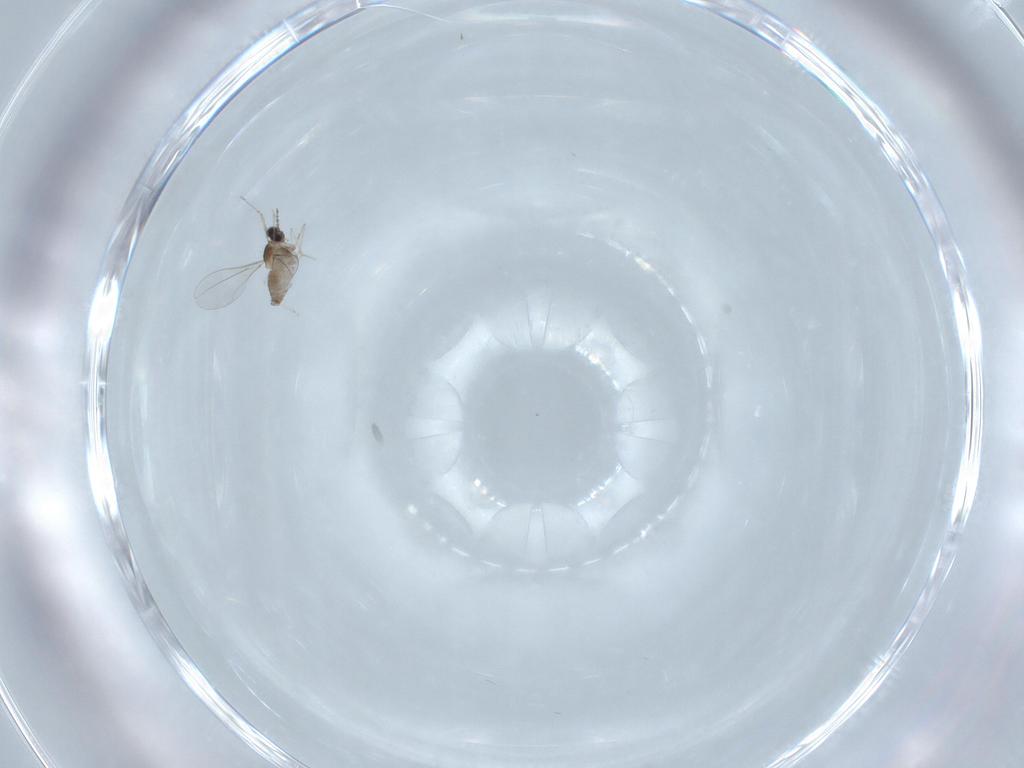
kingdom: Animalia
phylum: Arthropoda
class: Insecta
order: Diptera
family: Cecidomyiidae
